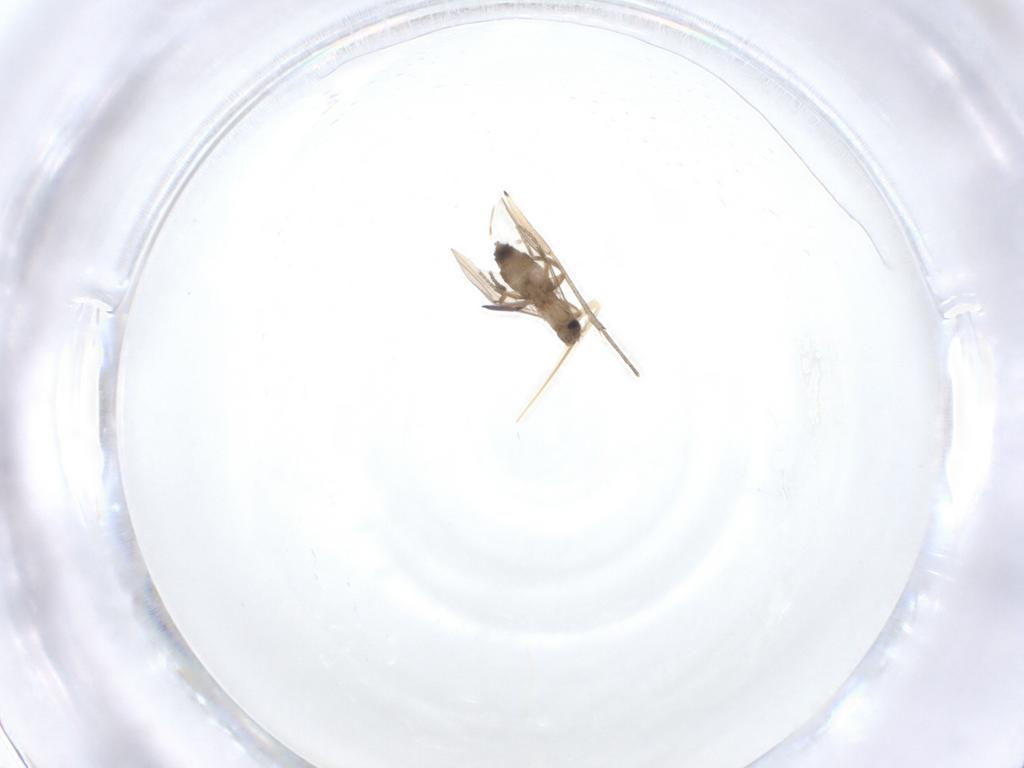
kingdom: Animalia
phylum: Arthropoda
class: Insecta
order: Diptera
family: Phoridae
